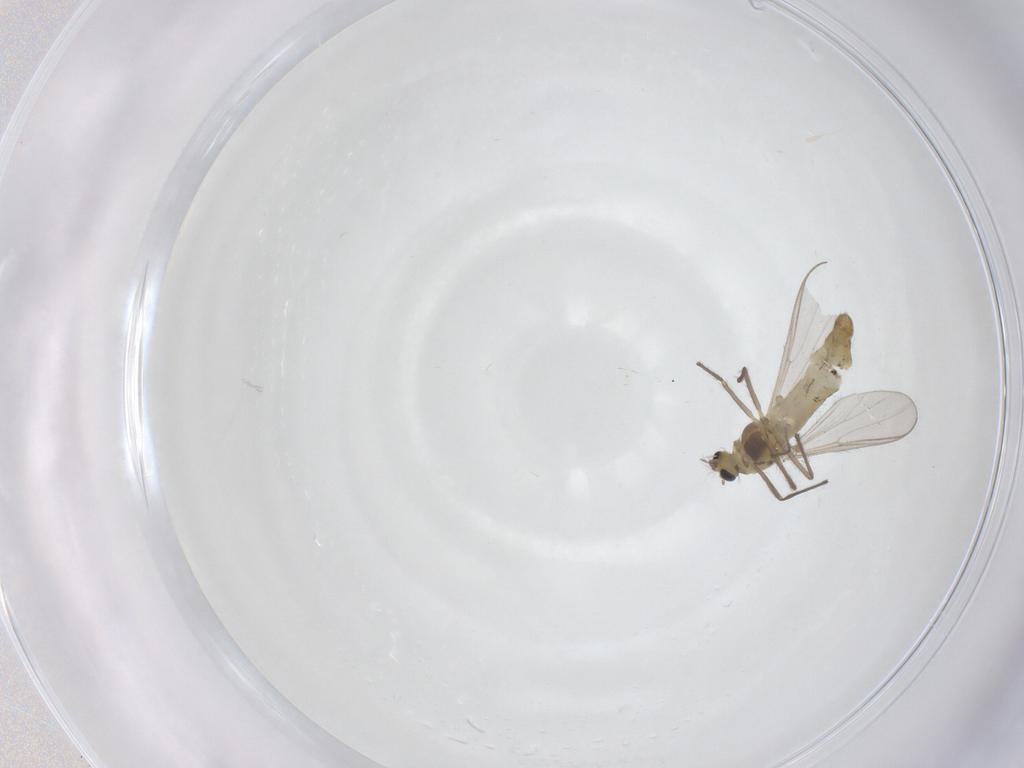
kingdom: Animalia
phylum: Arthropoda
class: Insecta
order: Diptera
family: Chironomidae
